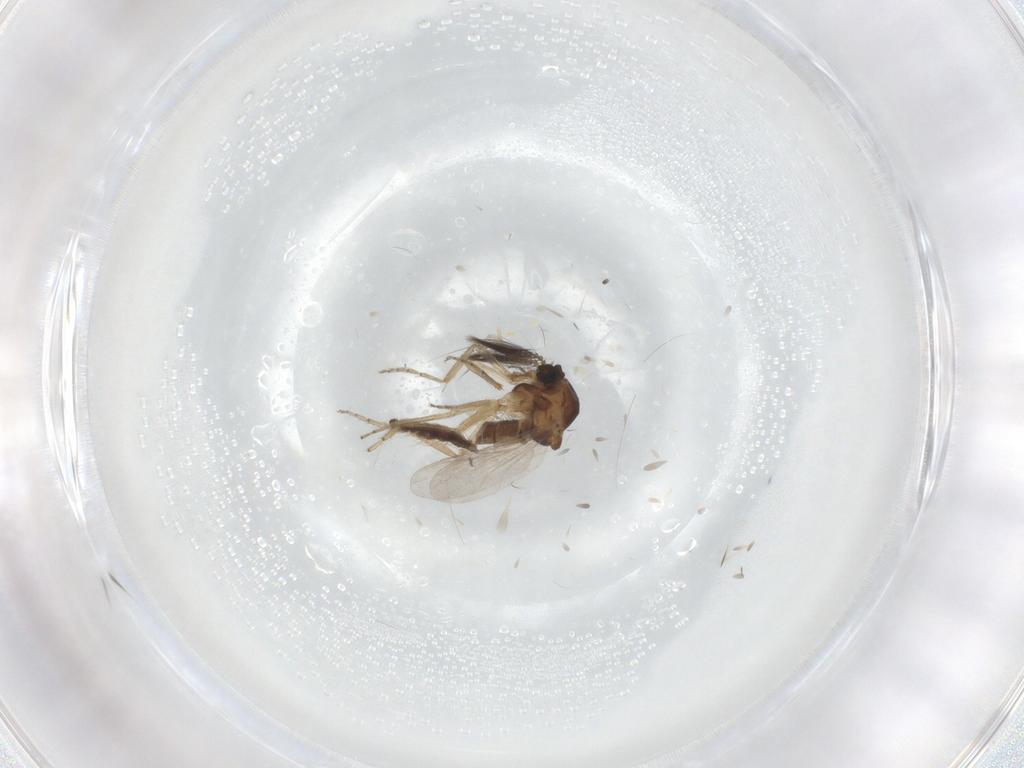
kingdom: Animalia
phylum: Arthropoda
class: Insecta
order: Diptera
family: Ceratopogonidae
